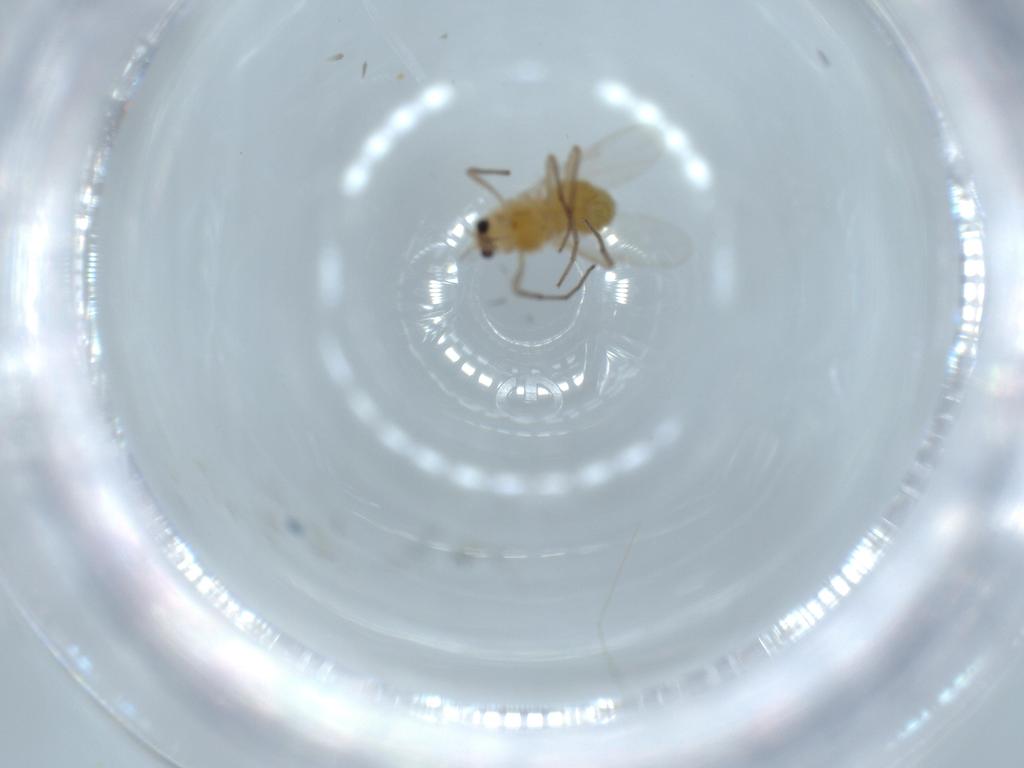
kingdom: Animalia
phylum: Arthropoda
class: Insecta
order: Diptera
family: Chironomidae
